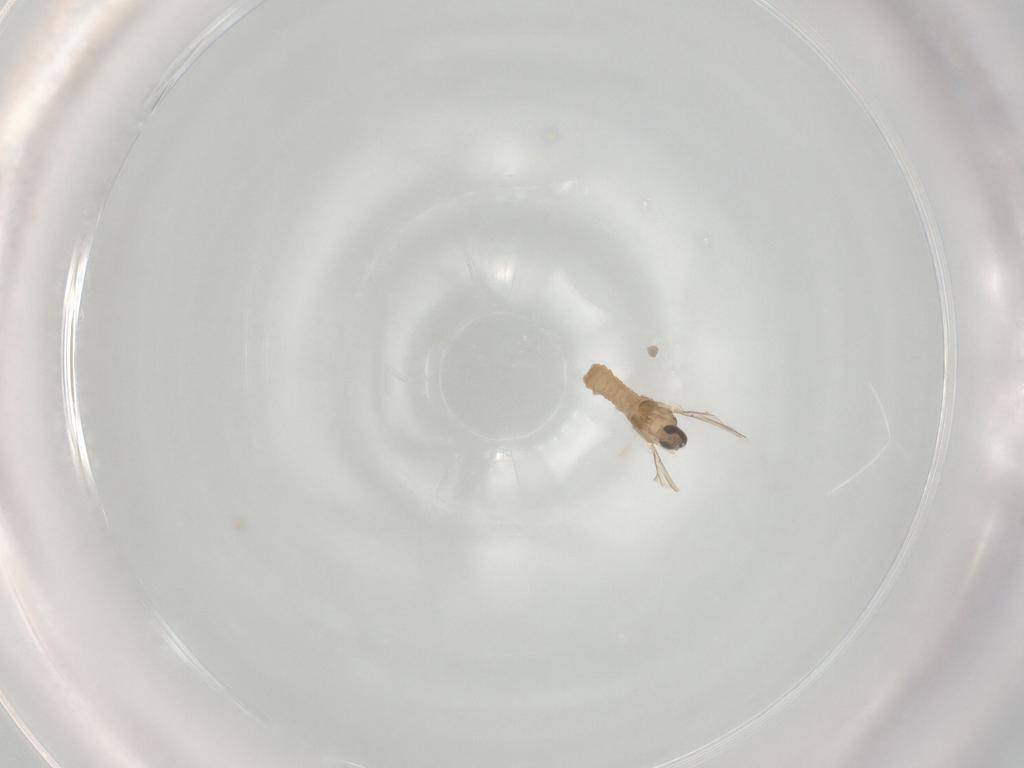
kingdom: Animalia
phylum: Arthropoda
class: Insecta
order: Diptera
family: Cecidomyiidae
